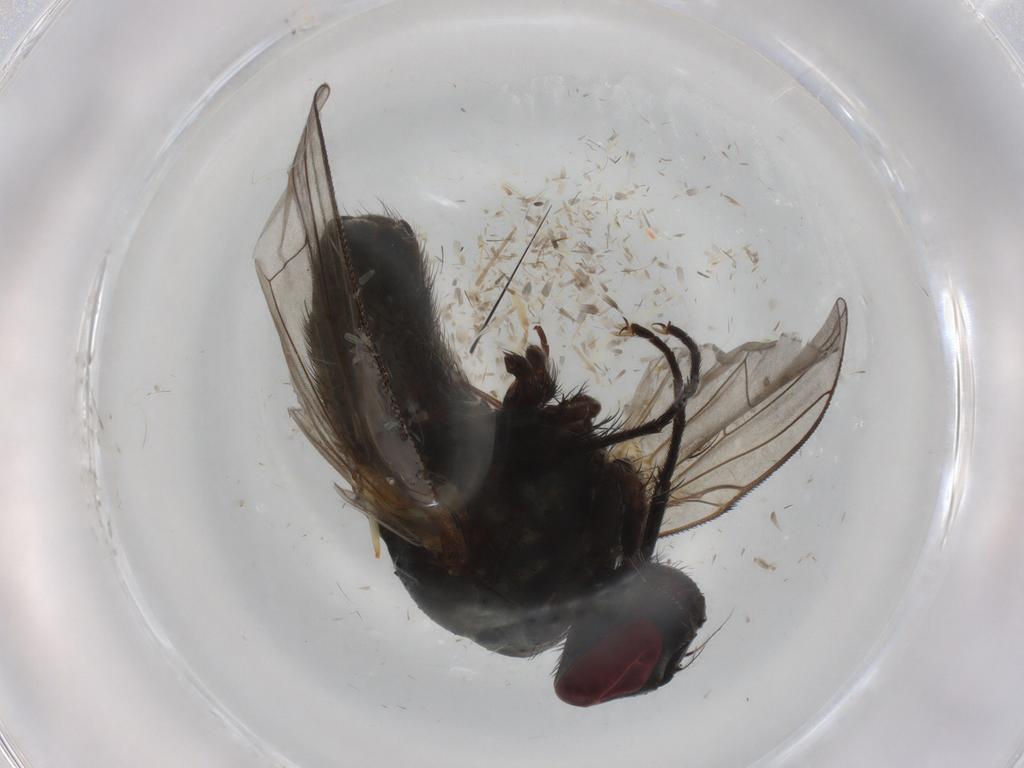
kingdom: Animalia
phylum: Arthropoda
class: Insecta
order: Diptera
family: Muscidae
